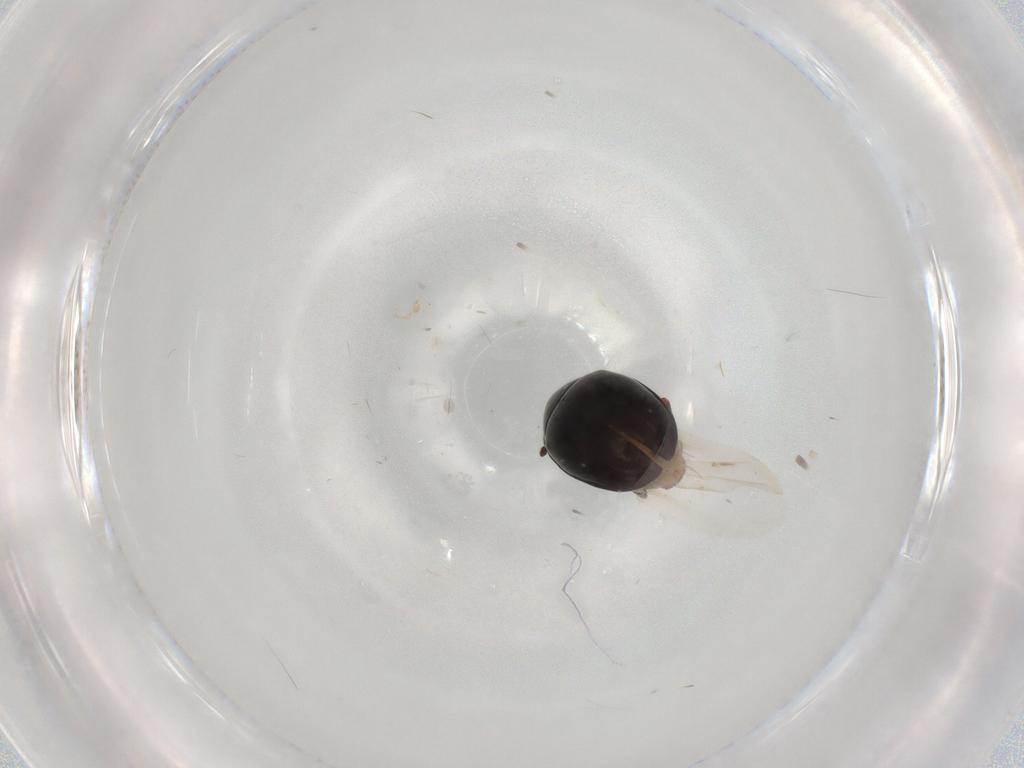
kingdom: Animalia
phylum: Arthropoda
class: Insecta
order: Coleoptera
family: Discolomatidae
